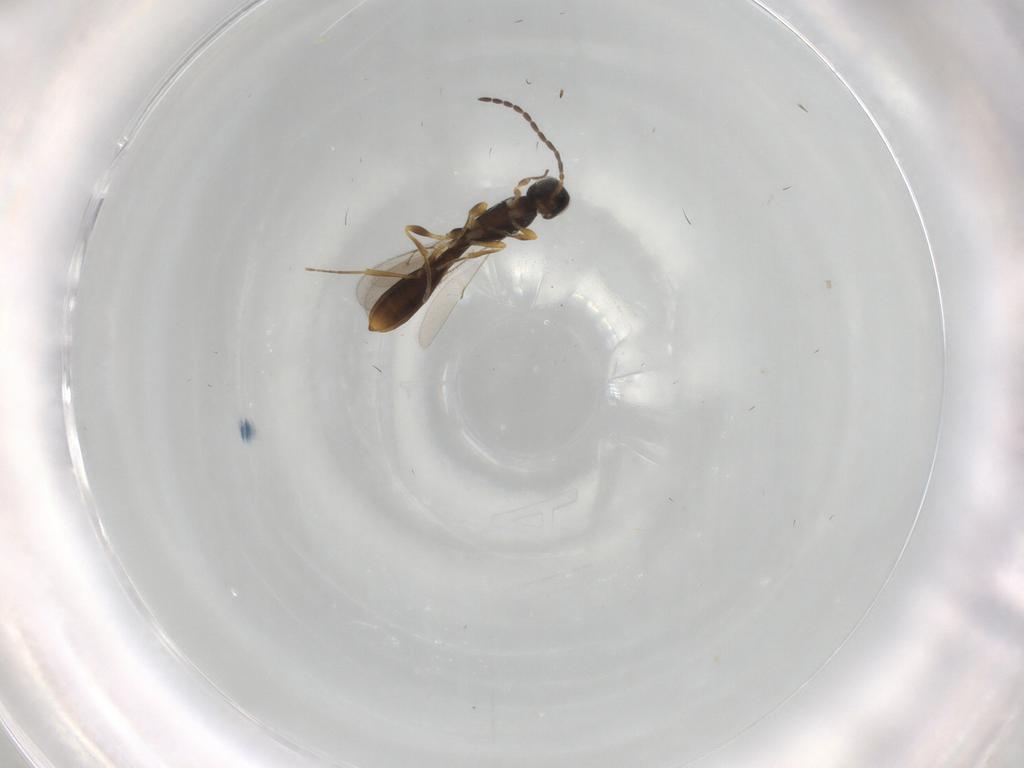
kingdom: Animalia
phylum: Arthropoda
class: Insecta
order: Hymenoptera
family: Scelionidae
